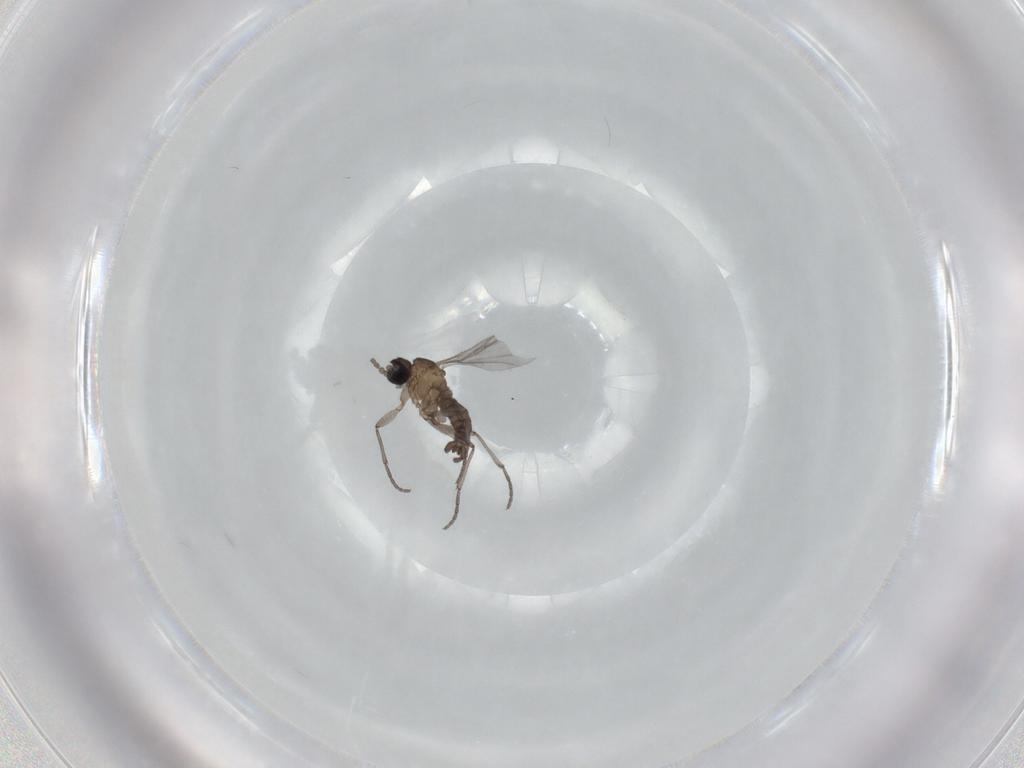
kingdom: Animalia
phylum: Arthropoda
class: Insecta
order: Diptera
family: Sciaridae
